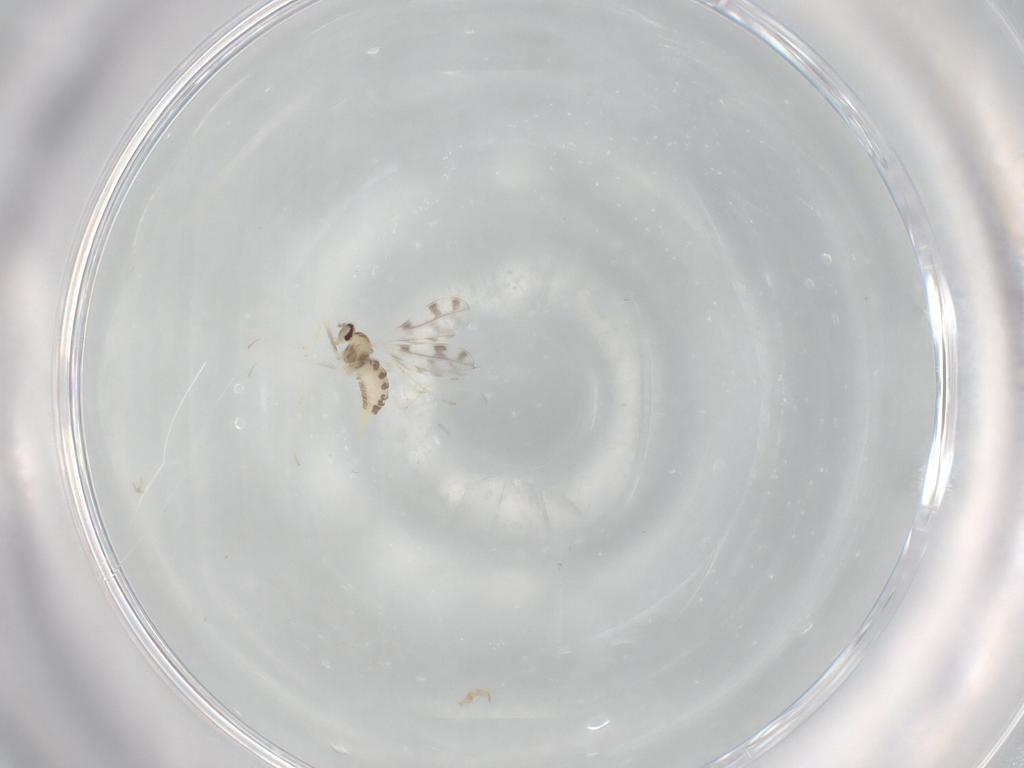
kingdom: Animalia
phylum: Arthropoda
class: Insecta
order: Diptera
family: Cecidomyiidae
